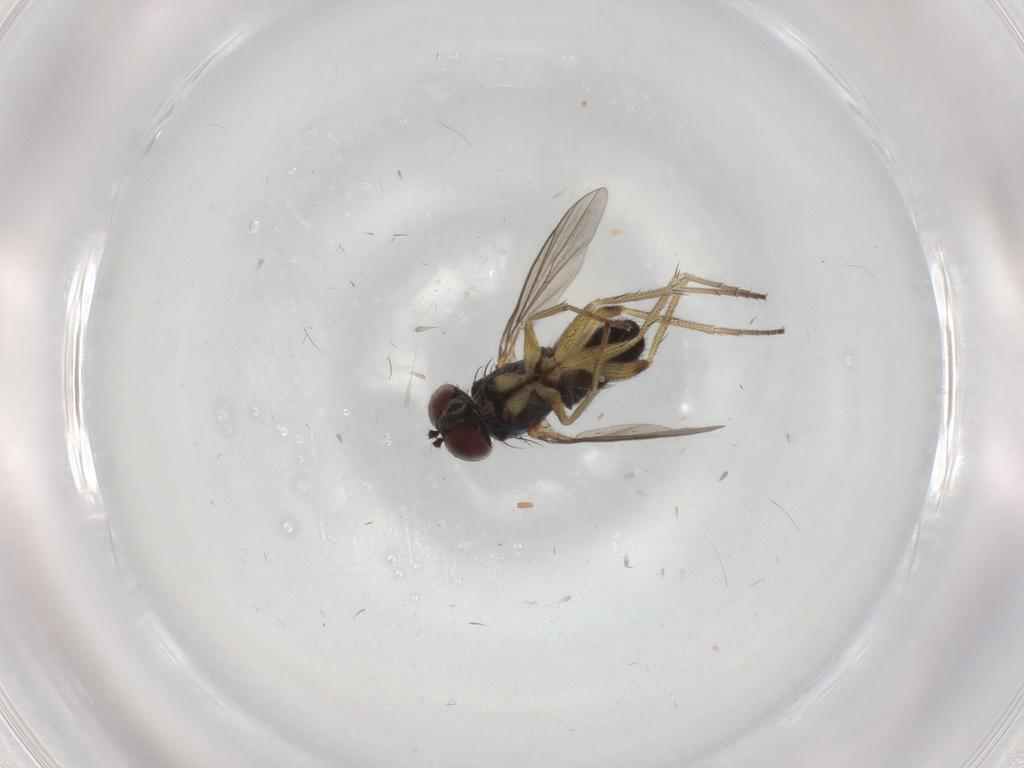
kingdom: Animalia
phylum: Arthropoda
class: Insecta
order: Diptera
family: Dolichopodidae
